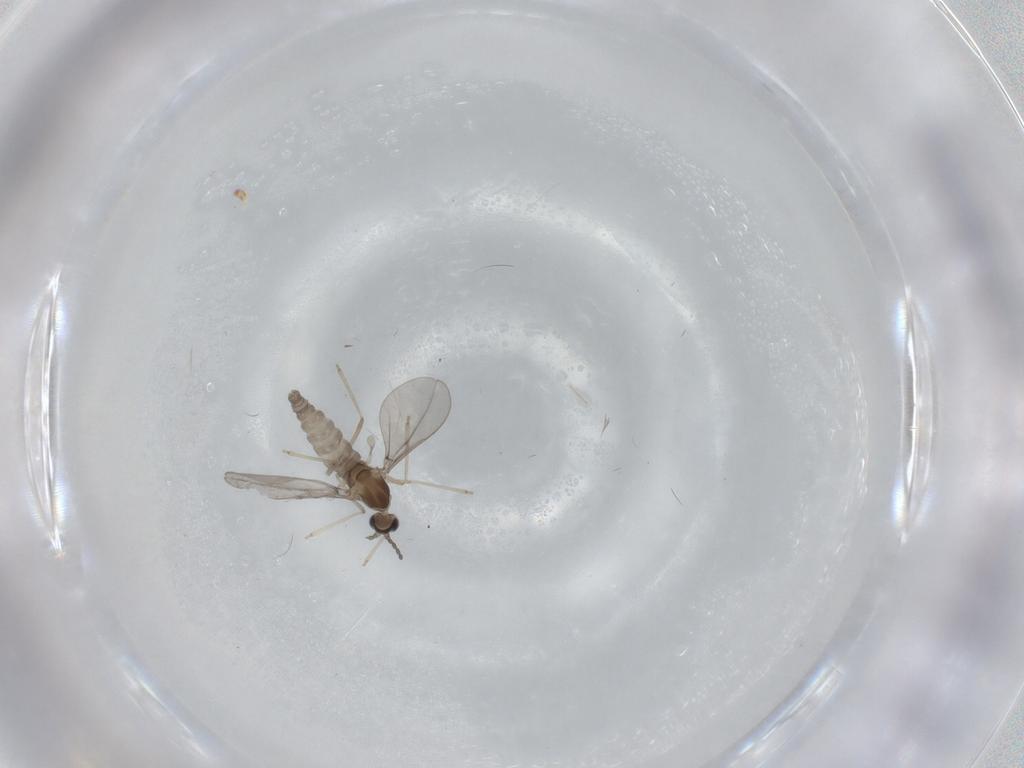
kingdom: Animalia
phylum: Arthropoda
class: Insecta
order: Diptera
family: Cecidomyiidae
